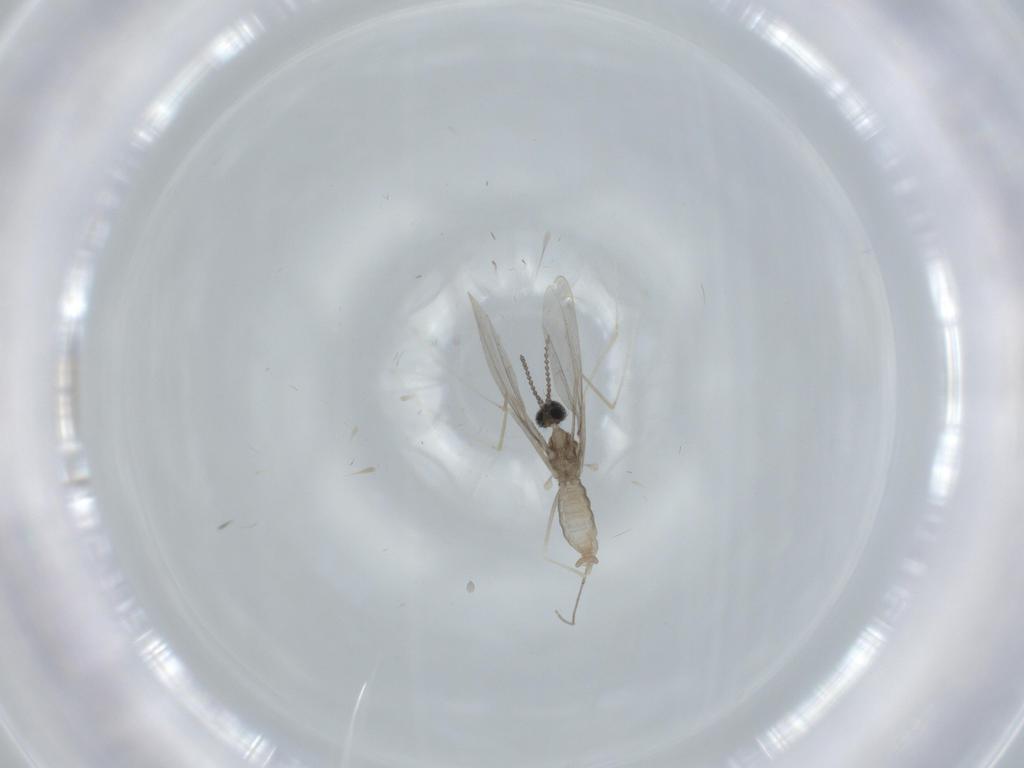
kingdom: Animalia
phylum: Arthropoda
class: Insecta
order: Diptera
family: Cecidomyiidae
